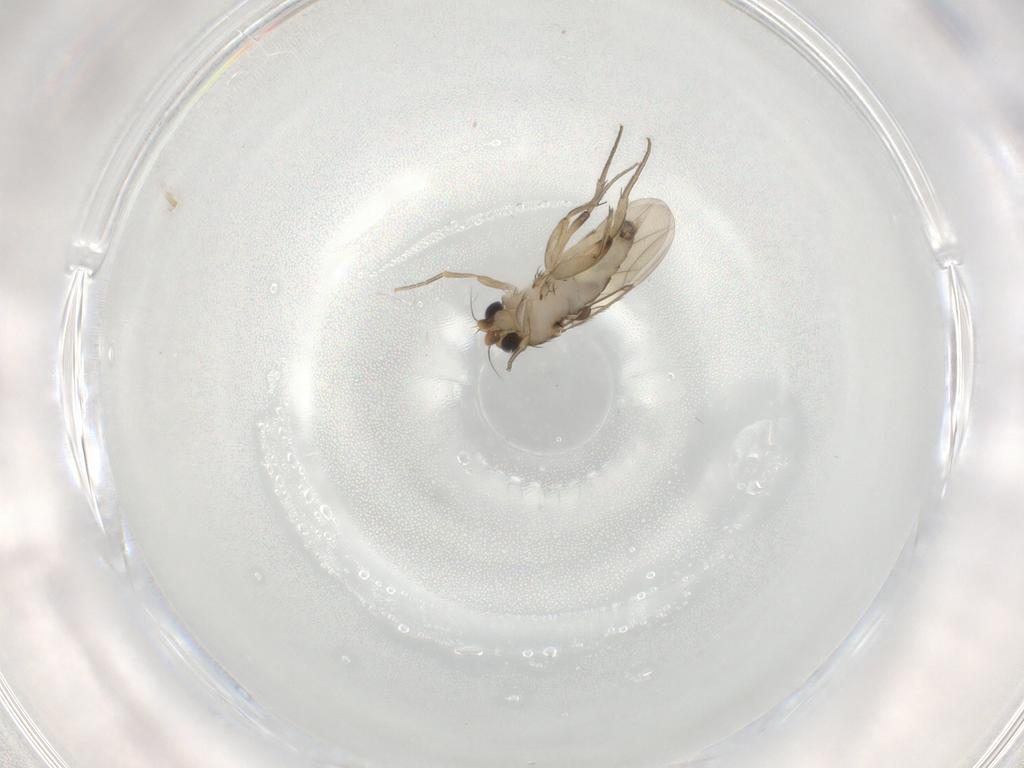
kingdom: Animalia
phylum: Arthropoda
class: Insecta
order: Diptera
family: Phoridae
